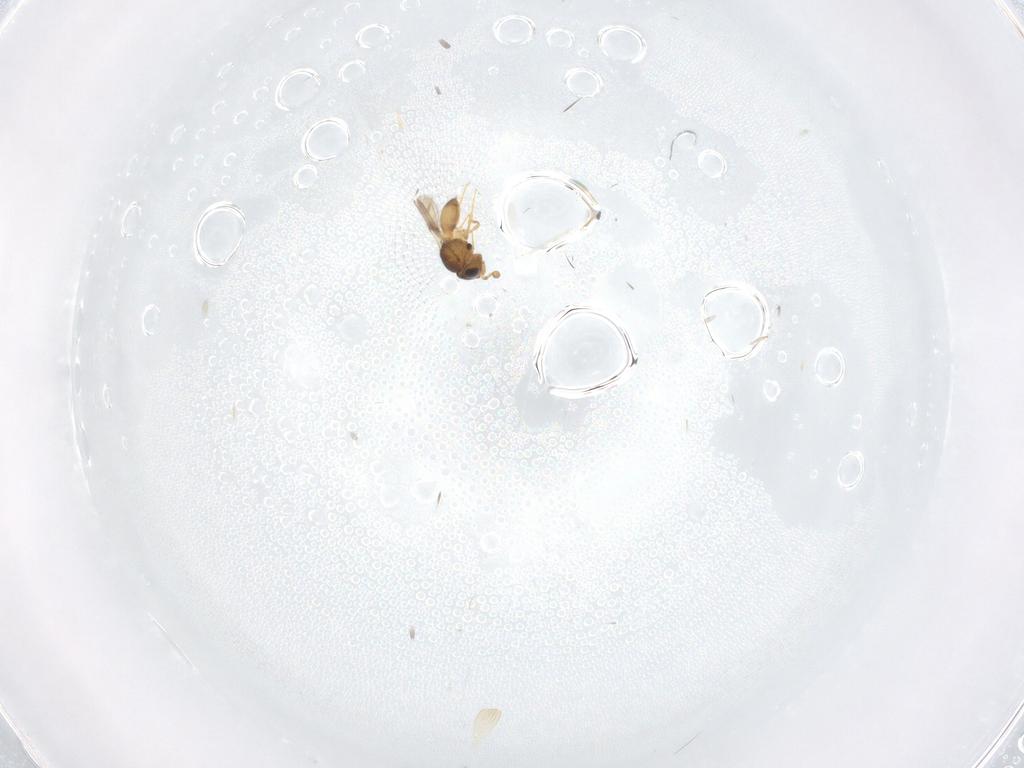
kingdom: Animalia
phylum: Arthropoda
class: Insecta
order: Hymenoptera
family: Scelionidae
